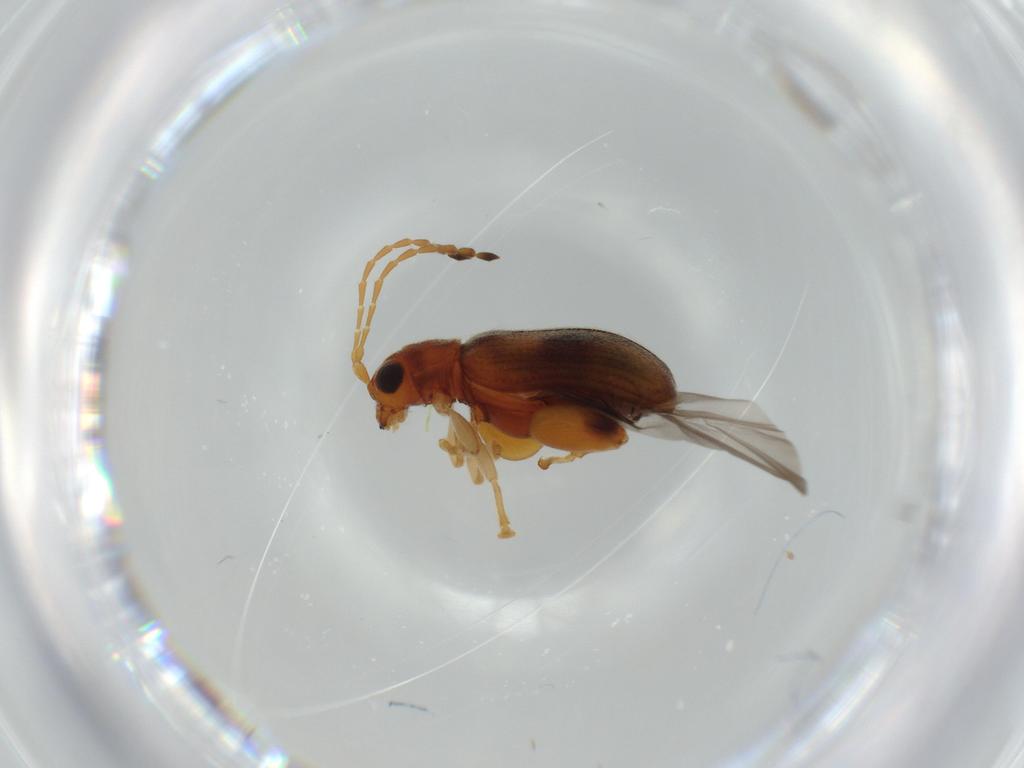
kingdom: Animalia
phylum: Arthropoda
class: Insecta
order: Coleoptera
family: Chrysomelidae
